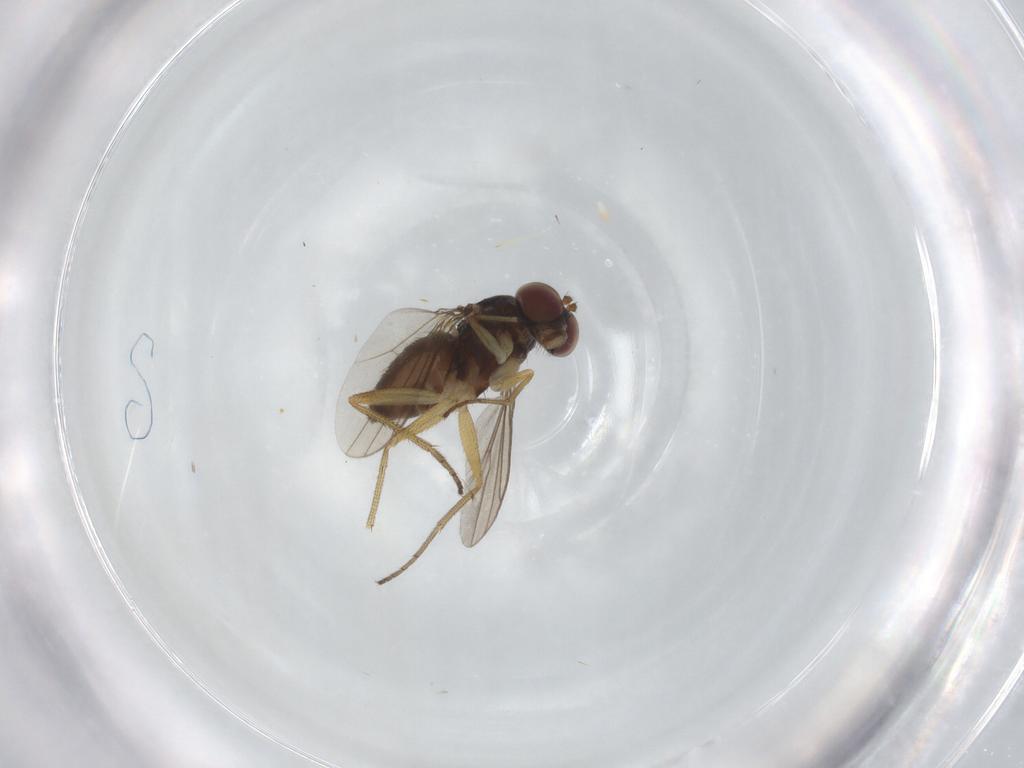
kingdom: Animalia
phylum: Arthropoda
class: Insecta
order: Diptera
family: Dolichopodidae
